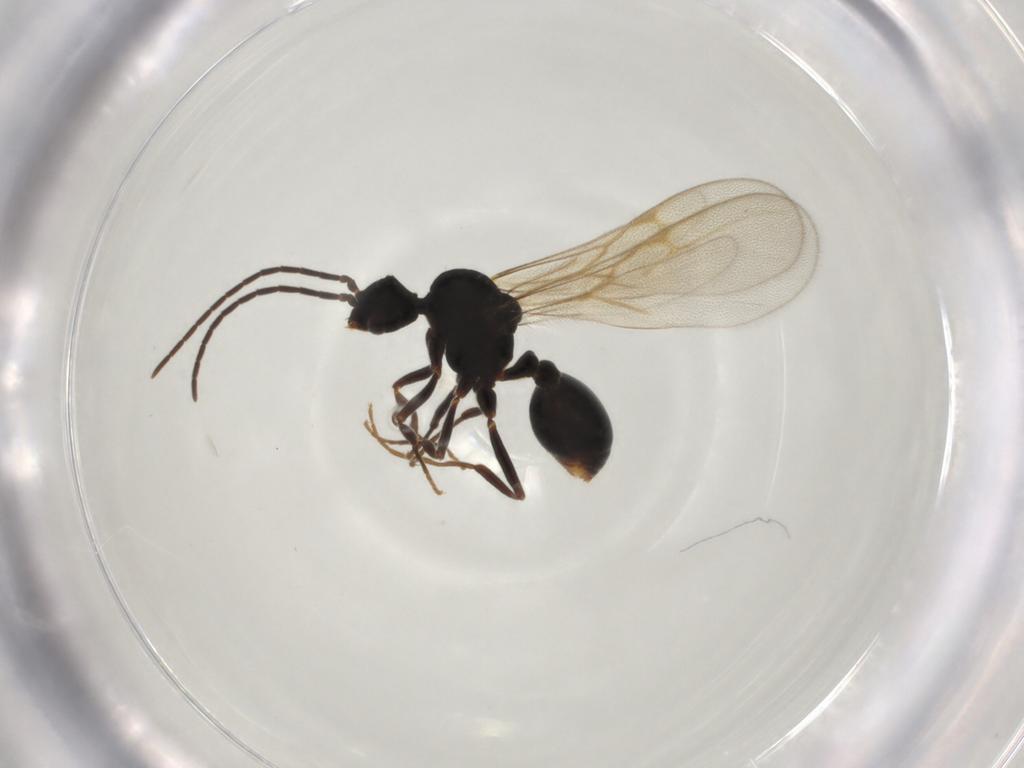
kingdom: Animalia
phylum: Arthropoda
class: Insecta
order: Hymenoptera
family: Formicidae
